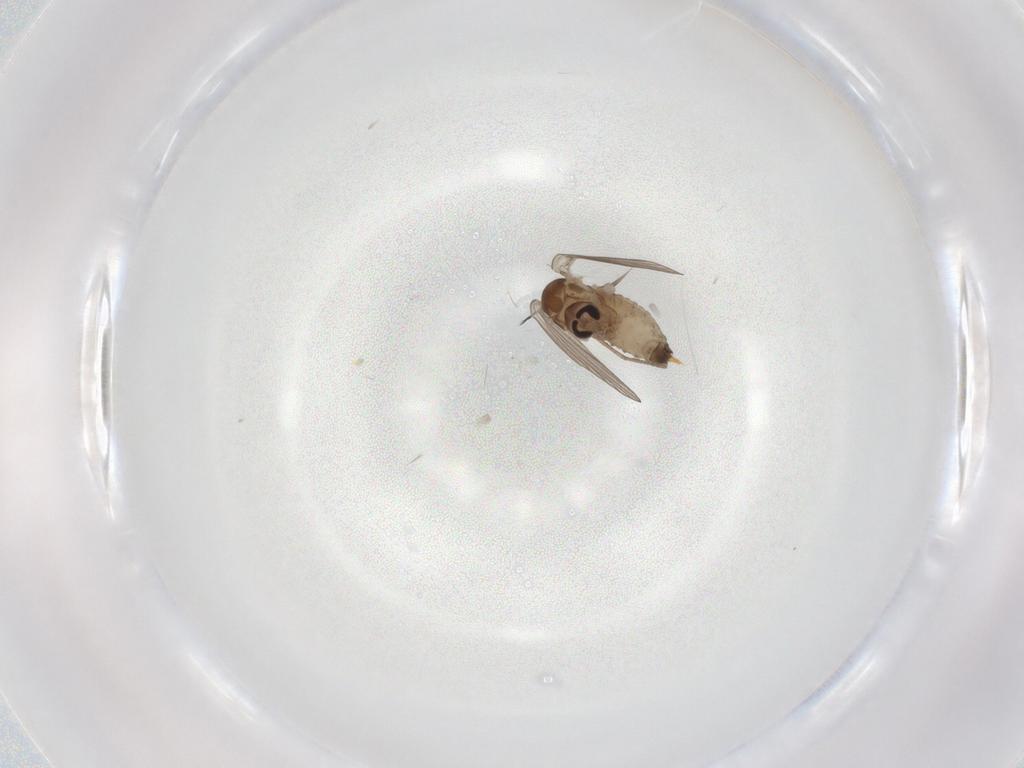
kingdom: Animalia
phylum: Arthropoda
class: Insecta
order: Diptera
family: Psychodidae
